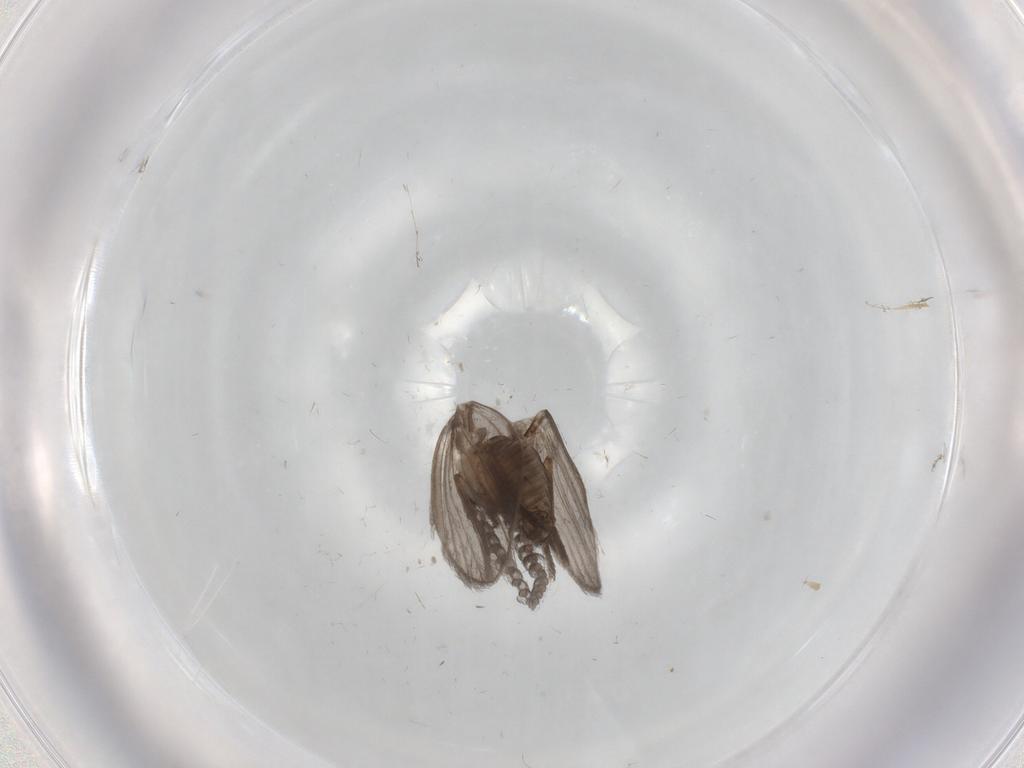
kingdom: Animalia
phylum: Arthropoda
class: Insecta
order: Diptera
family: Psychodidae
